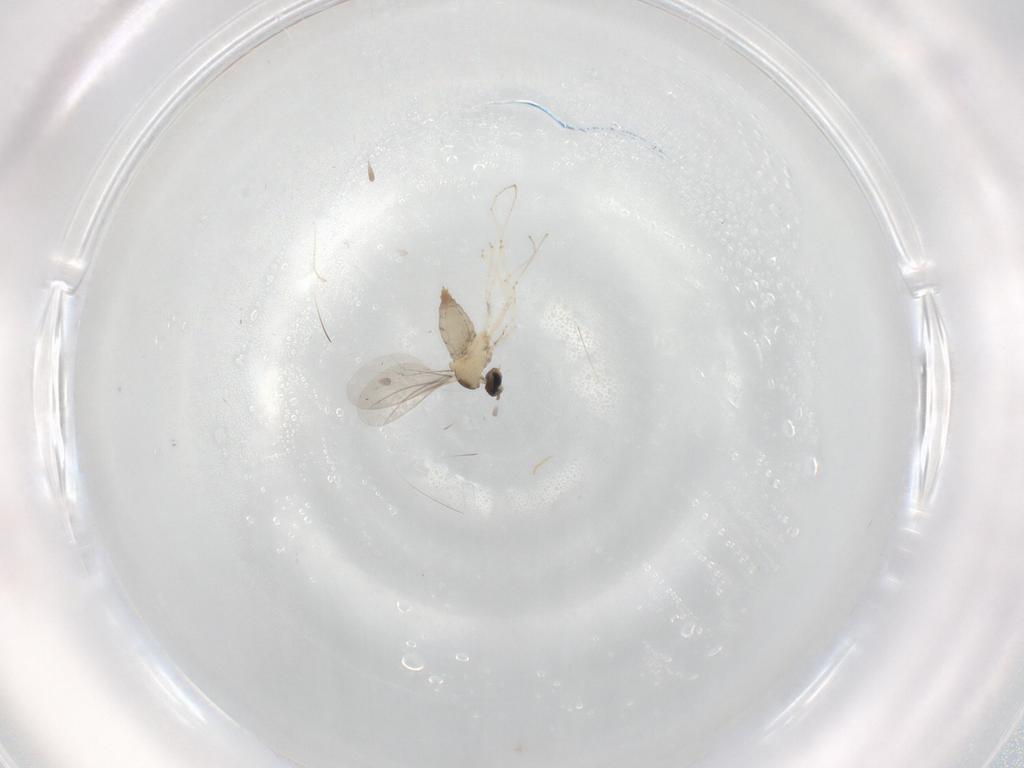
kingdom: Animalia
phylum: Arthropoda
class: Insecta
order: Diptera
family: Cecidomyiidae
